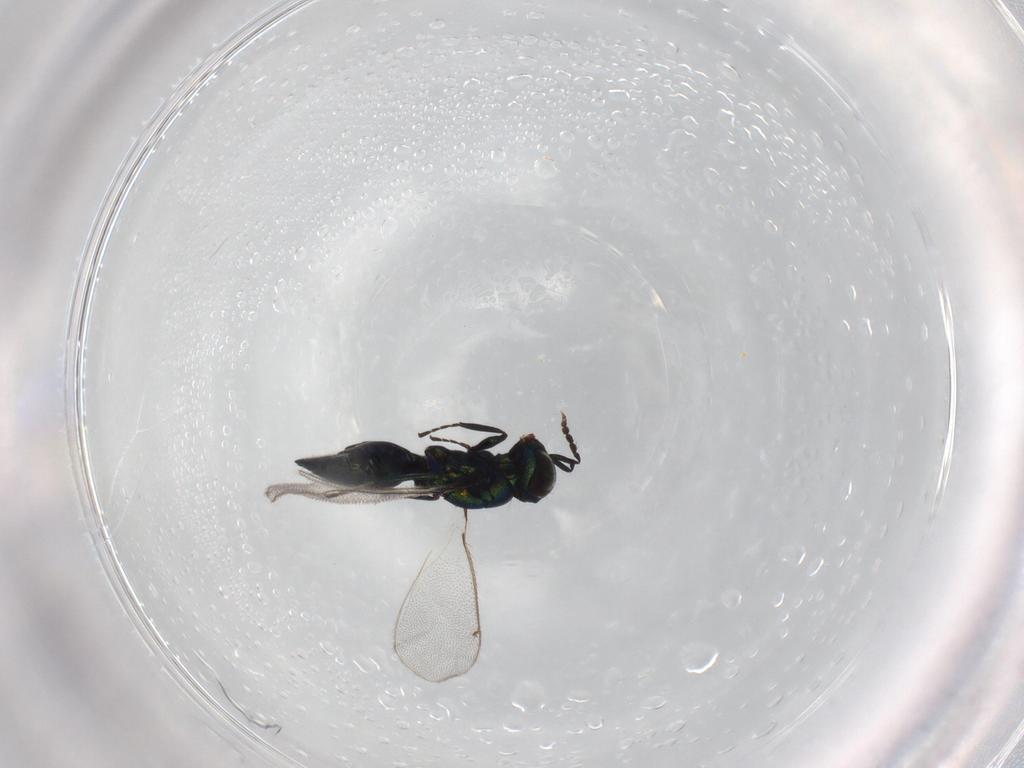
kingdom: Animalia
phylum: Arthropoda
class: Insecta
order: Hymenoptera
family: Braconidae
